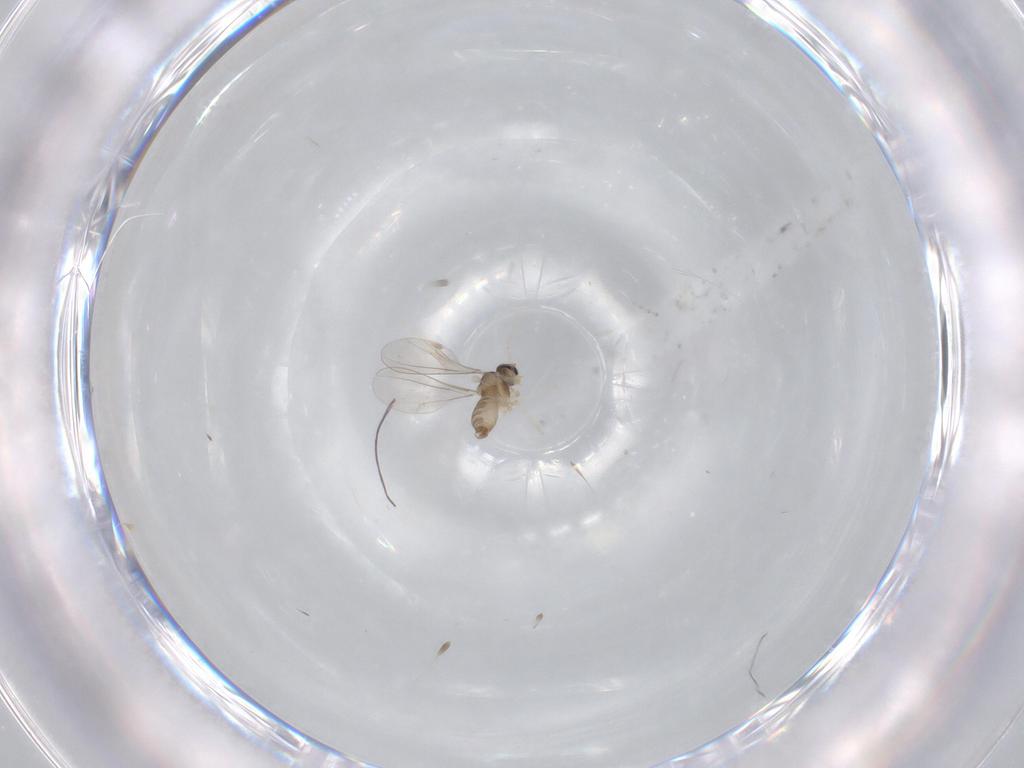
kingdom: Animalia
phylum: Arthropoda
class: Insecta
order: Diptera
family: Cecidomyiidae
